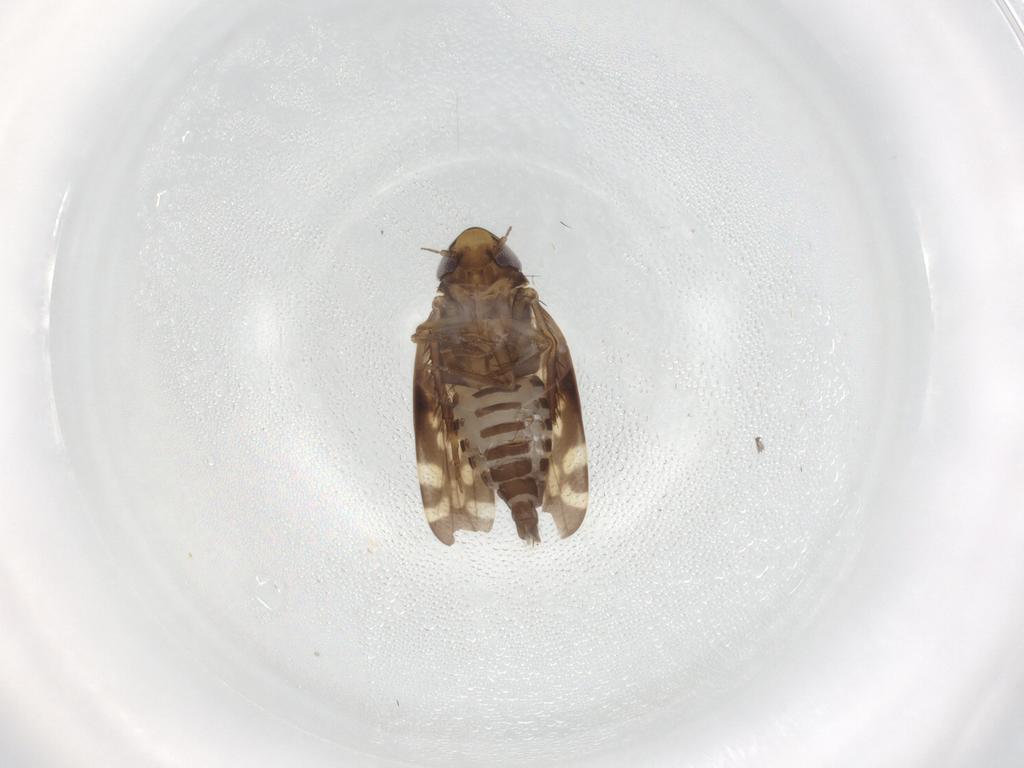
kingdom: Animalia
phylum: Arthropoda
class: Insecta
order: Hemiptera
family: Cicadellidae
